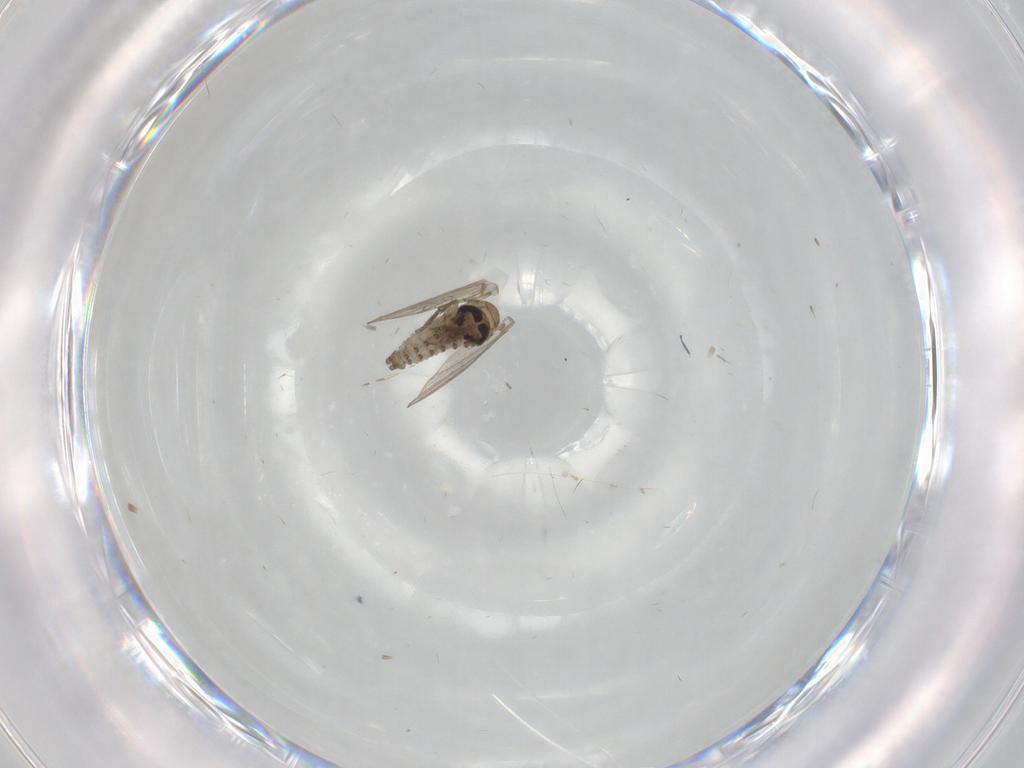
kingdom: Animalia
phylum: Arthropoda
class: Insecta
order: Diptera
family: Psychodidae
